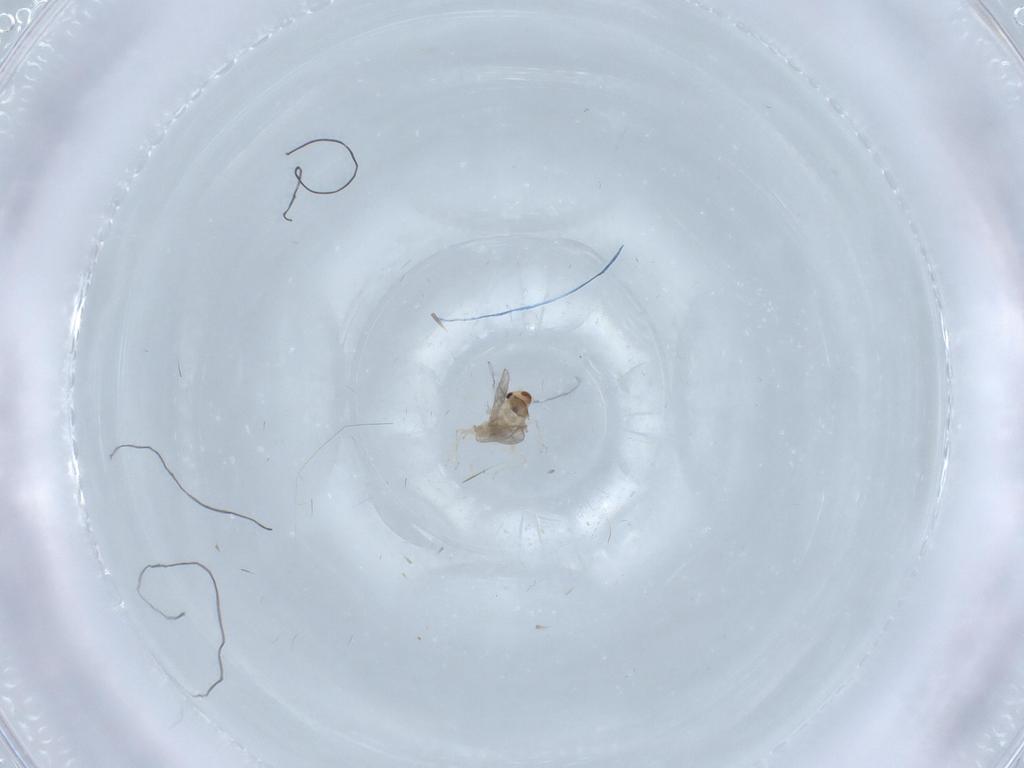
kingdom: Animalia
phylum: Arthropoda
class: Insecta
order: Diptera
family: Cecidomyiidae
